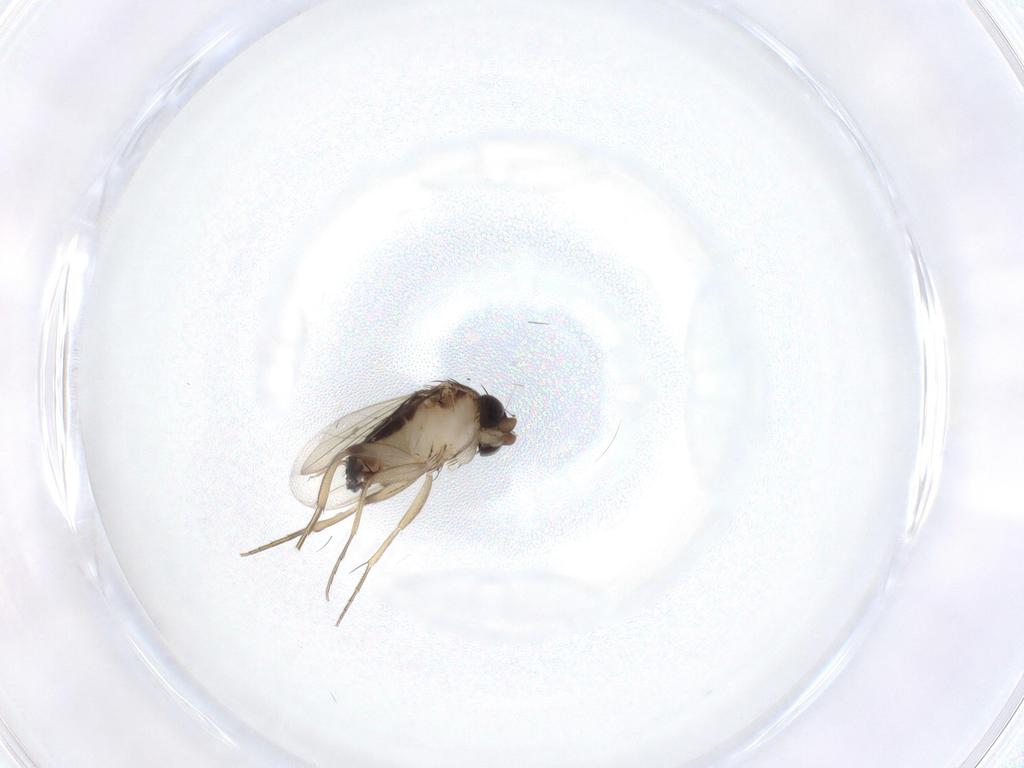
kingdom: Animalia
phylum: Arthropoda
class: Insecta
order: Diptera
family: Phoridae
